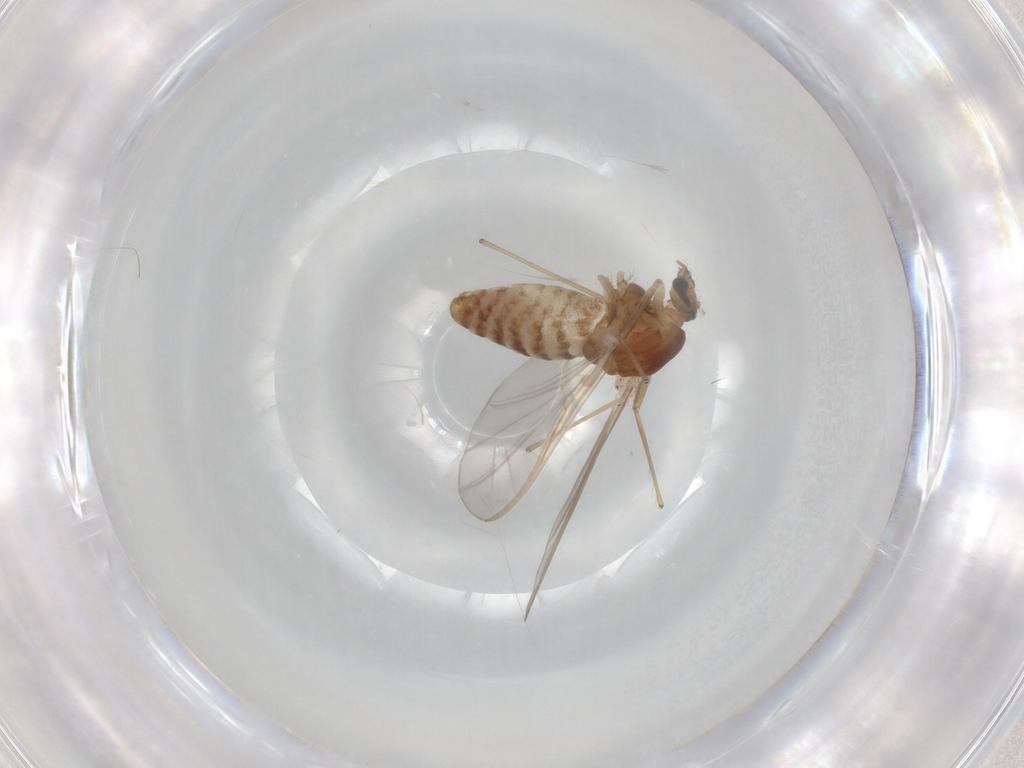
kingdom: Animalia
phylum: Arthropoda
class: Insecta
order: Diptera
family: Chironomidae
